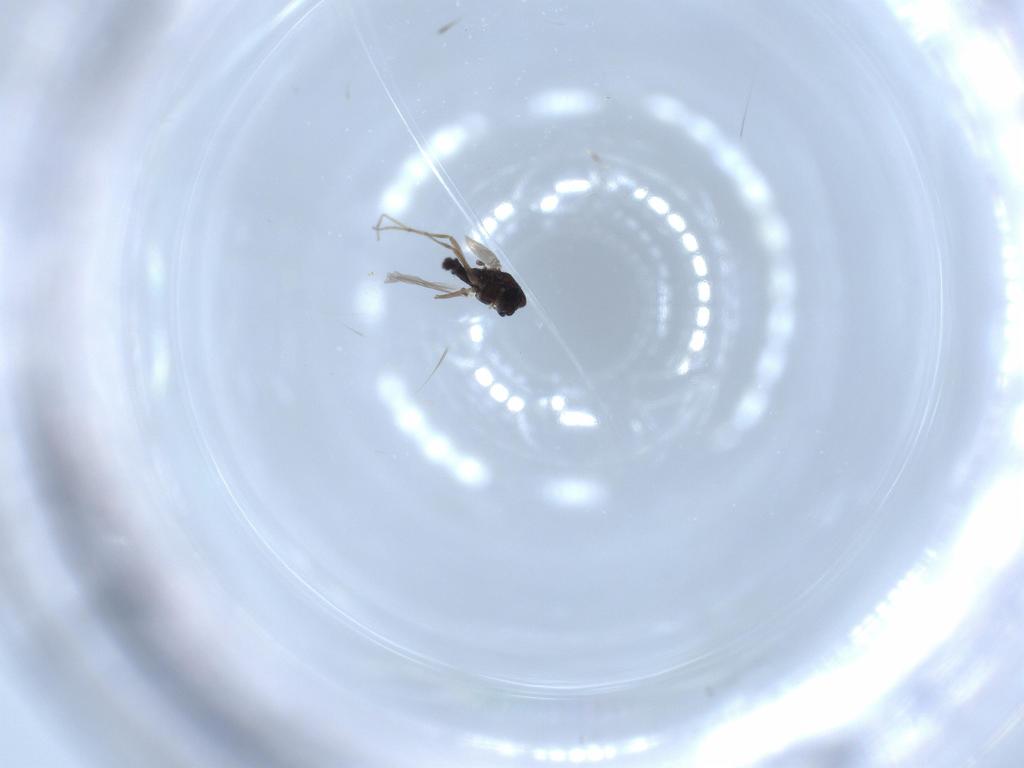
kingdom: Animalia
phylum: Arthropoda
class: Insecta
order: Diptera
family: Chironomidae
